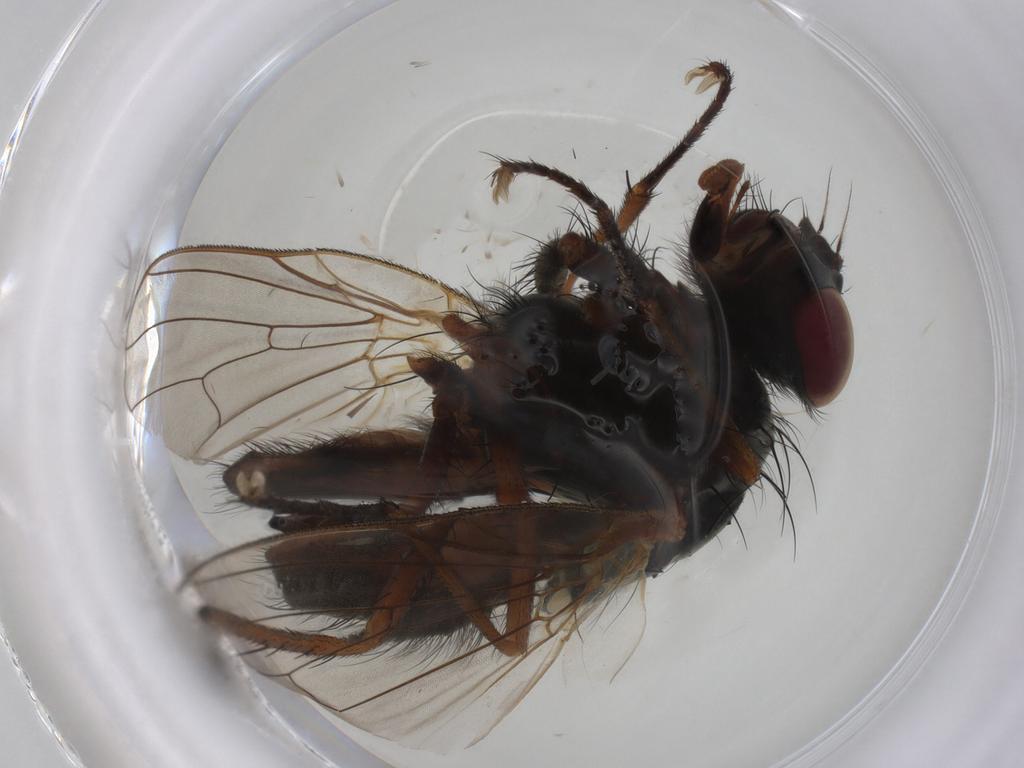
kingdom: Animalia
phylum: Arthropoda
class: Insecta
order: Diptera
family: Anthomyiidae
